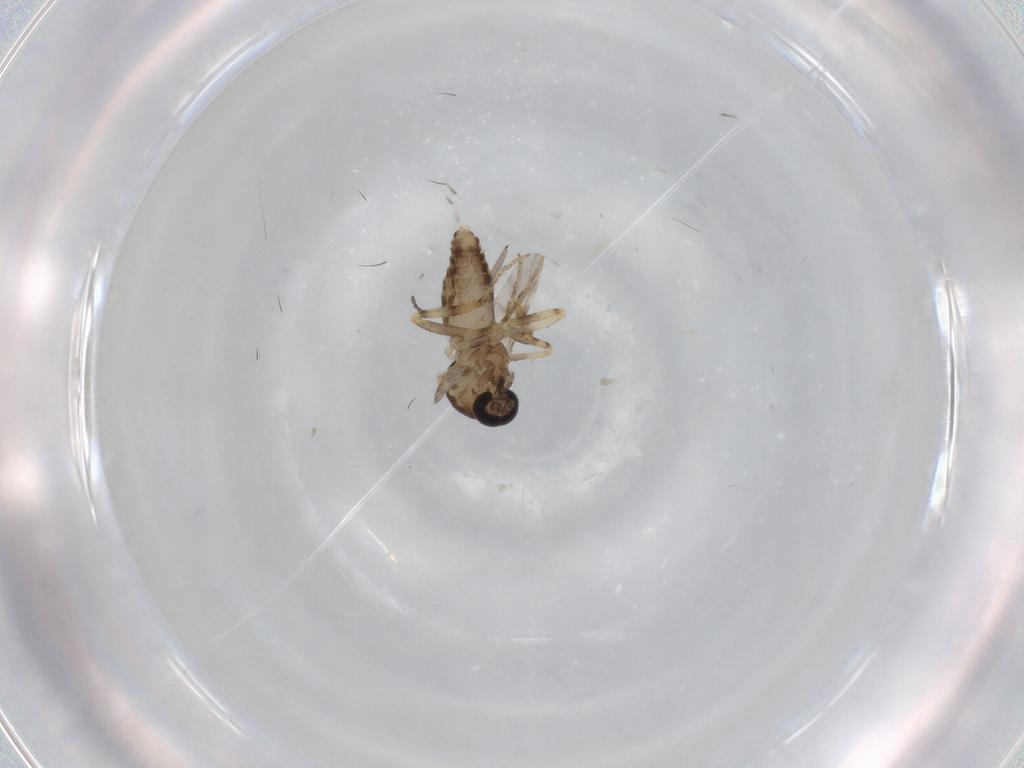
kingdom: Animalia
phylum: Arthropoda
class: Insecta
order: Diptera
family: Ceratopogonidae
